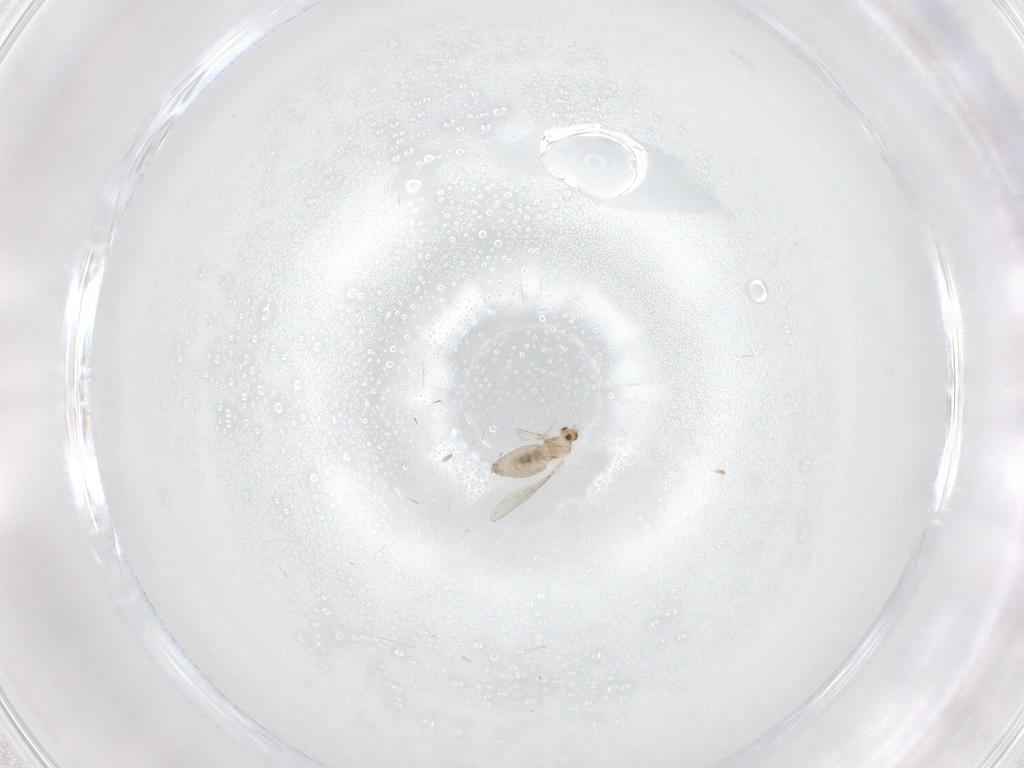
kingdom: Animalia
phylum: Arthropoda
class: Insecta
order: Diptera
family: Cecidomyiidae
